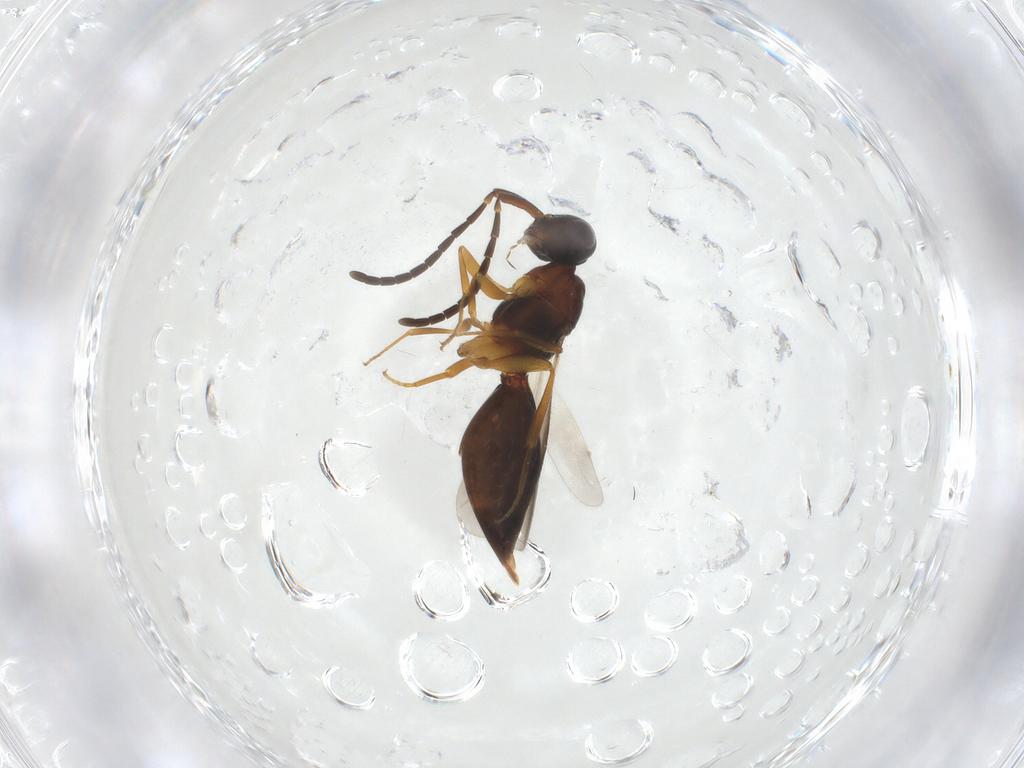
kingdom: Animalia
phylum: Arthropoda
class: Insecta
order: Hymenoptera
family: Megaspilidae
